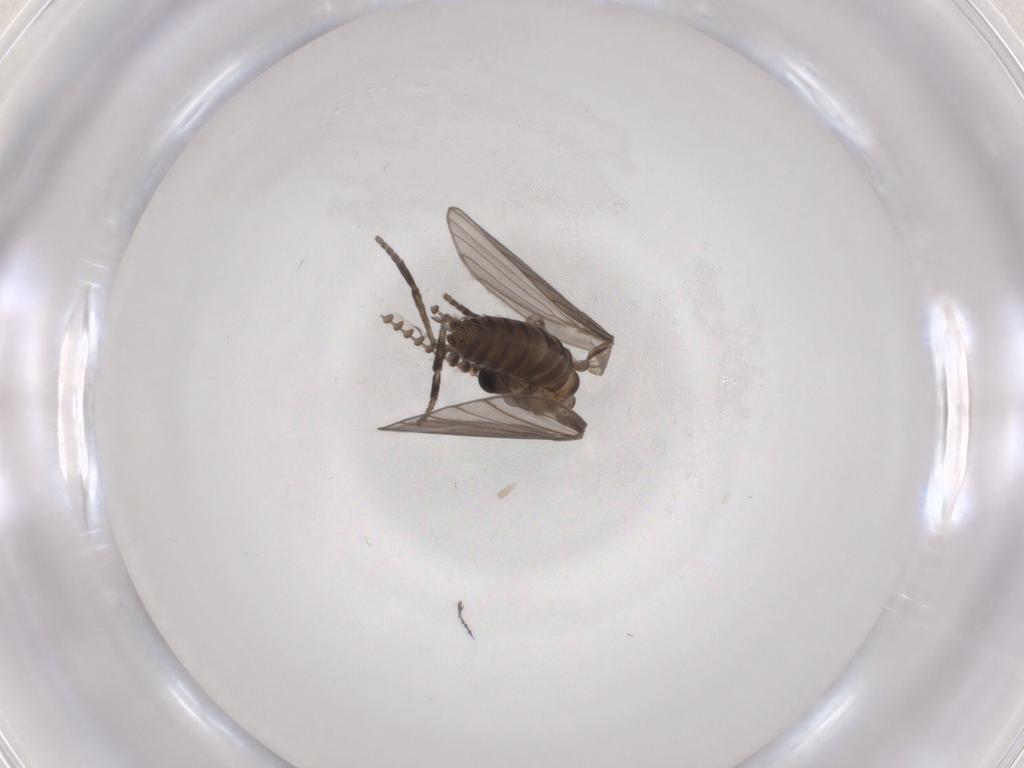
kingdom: Animalia
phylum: Arthropoda
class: Insecta
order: Diptera
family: Psychodidae
